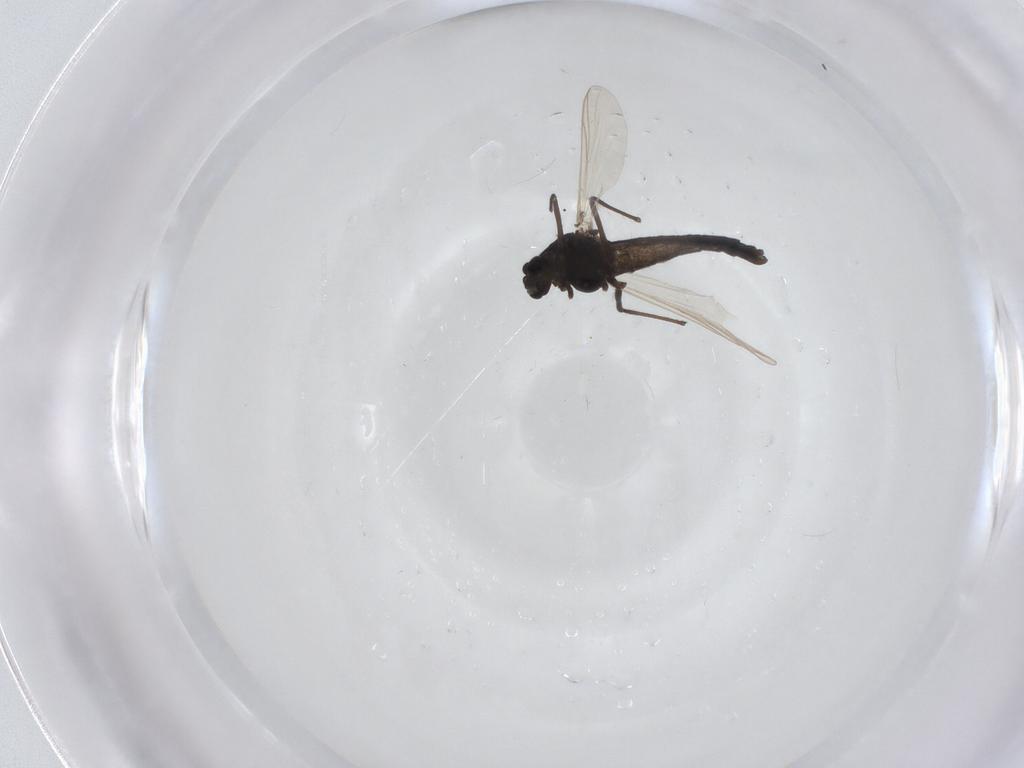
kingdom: Animalia
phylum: Arthropoda
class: Insecta
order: Diptera
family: Chironomidae
